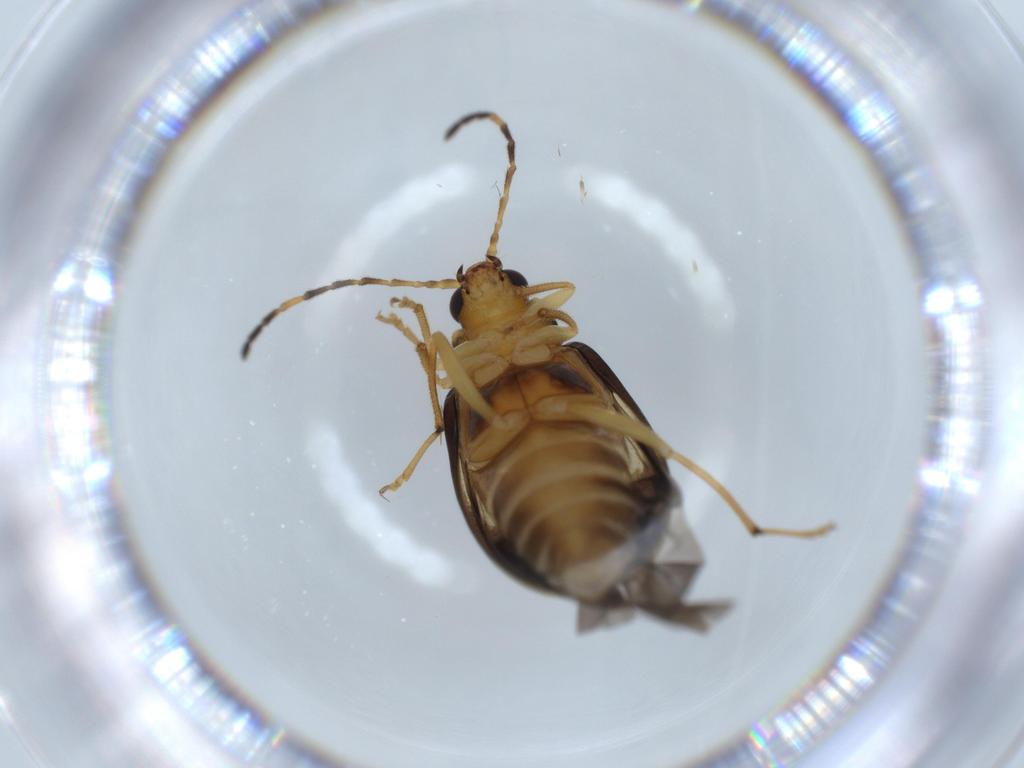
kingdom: Animalia
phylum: Arthropoda
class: Insecta
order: Coleoptera
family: Chrysomelidae
